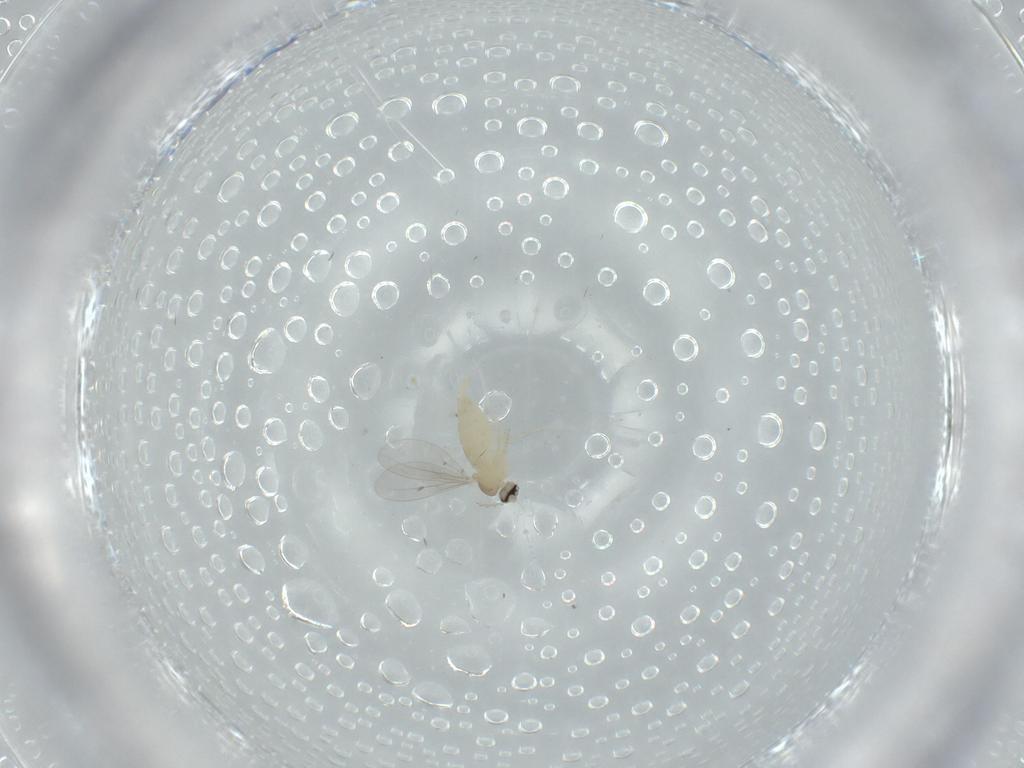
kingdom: Animalia
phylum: Arthropoda
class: Insecta
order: Diptera
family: Cecidomyiidae
